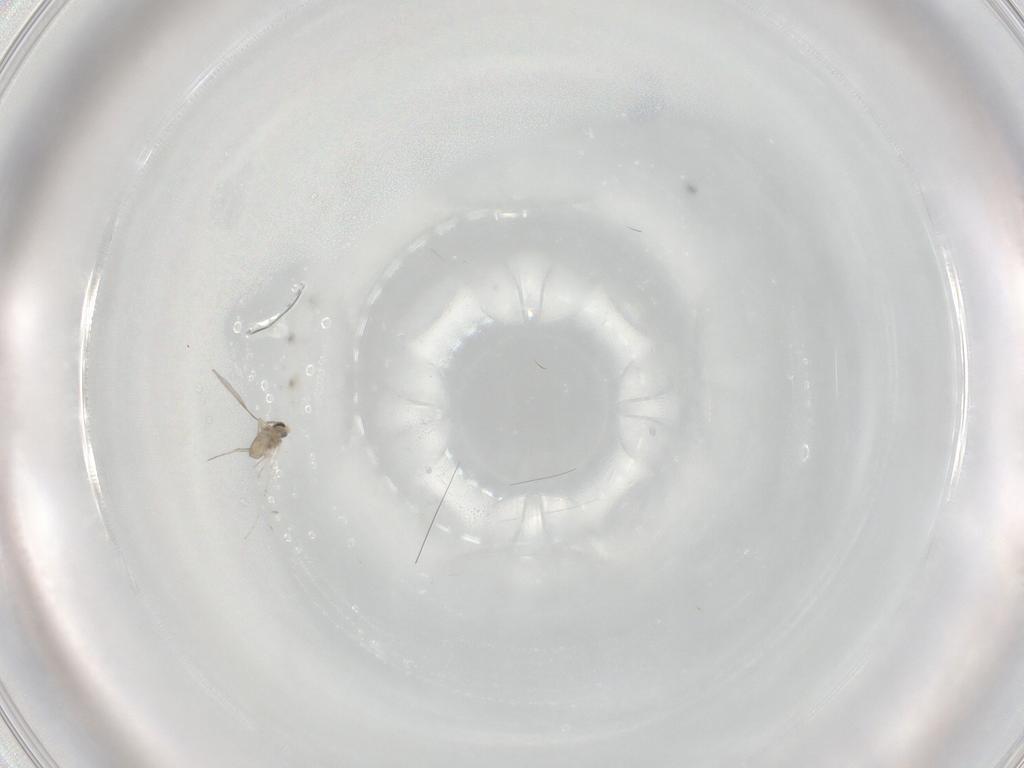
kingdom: Animalia
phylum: Arthropoda
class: Insecta
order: Diptera
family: Cecidomyiidae
